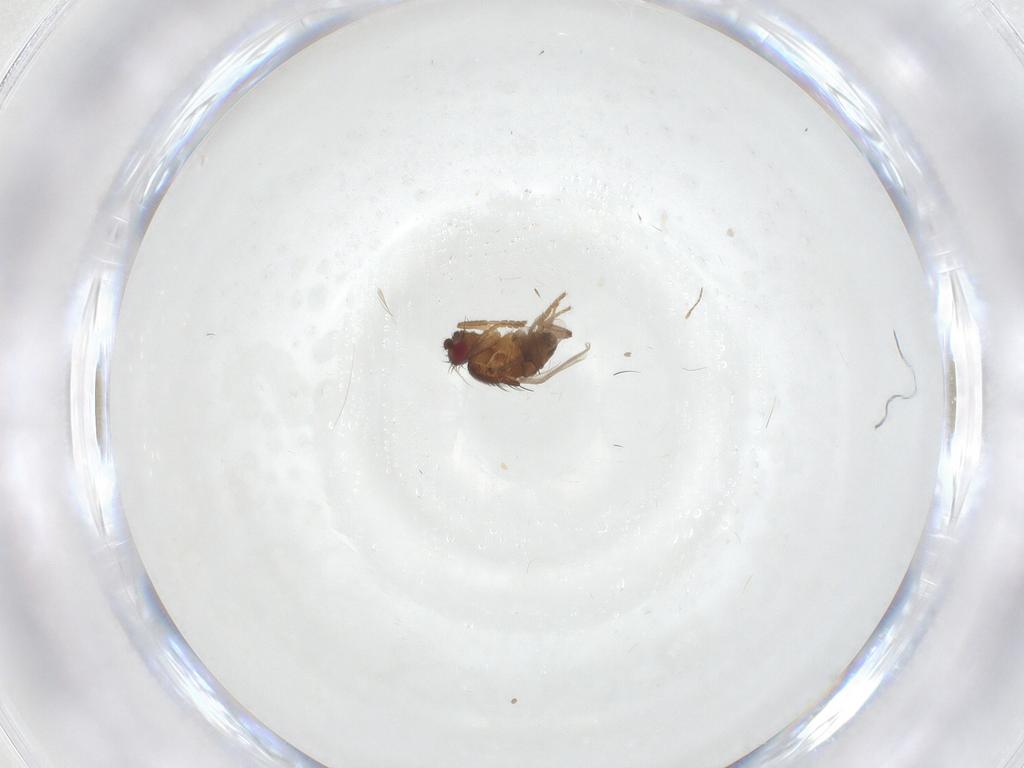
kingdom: Animalia
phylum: Arthropoda
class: Insecta
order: Diptera
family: Sphaeroceridae
